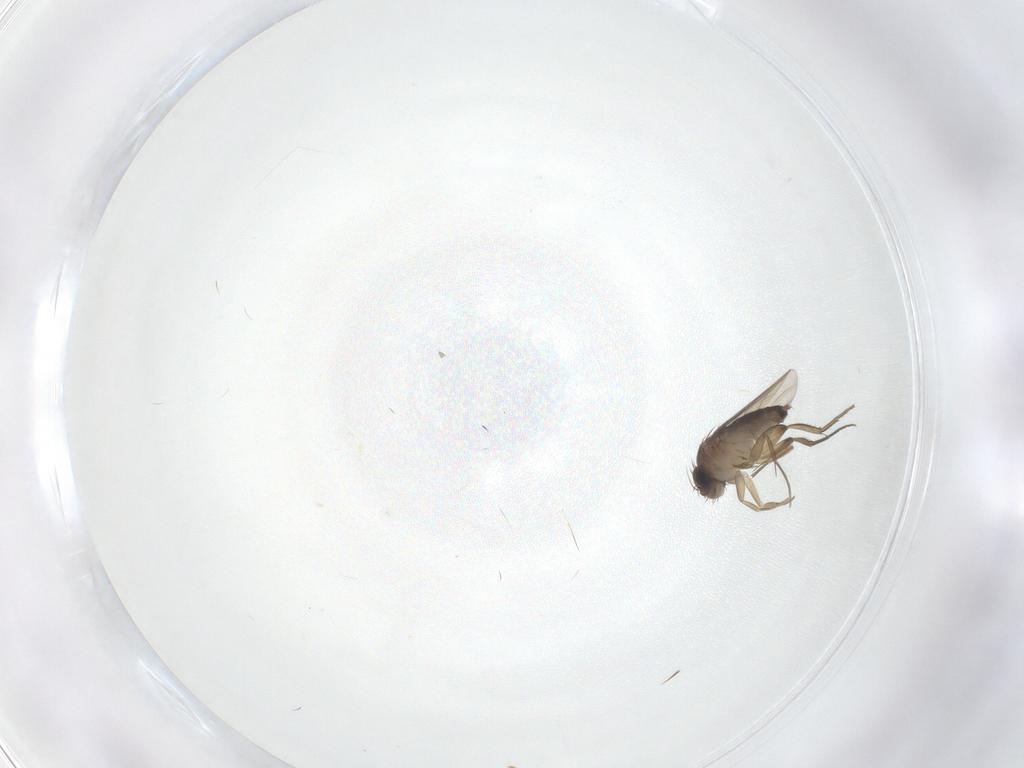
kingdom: Animalia
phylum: Arthropoda
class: Insecta
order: Diptera
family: Phoridae
